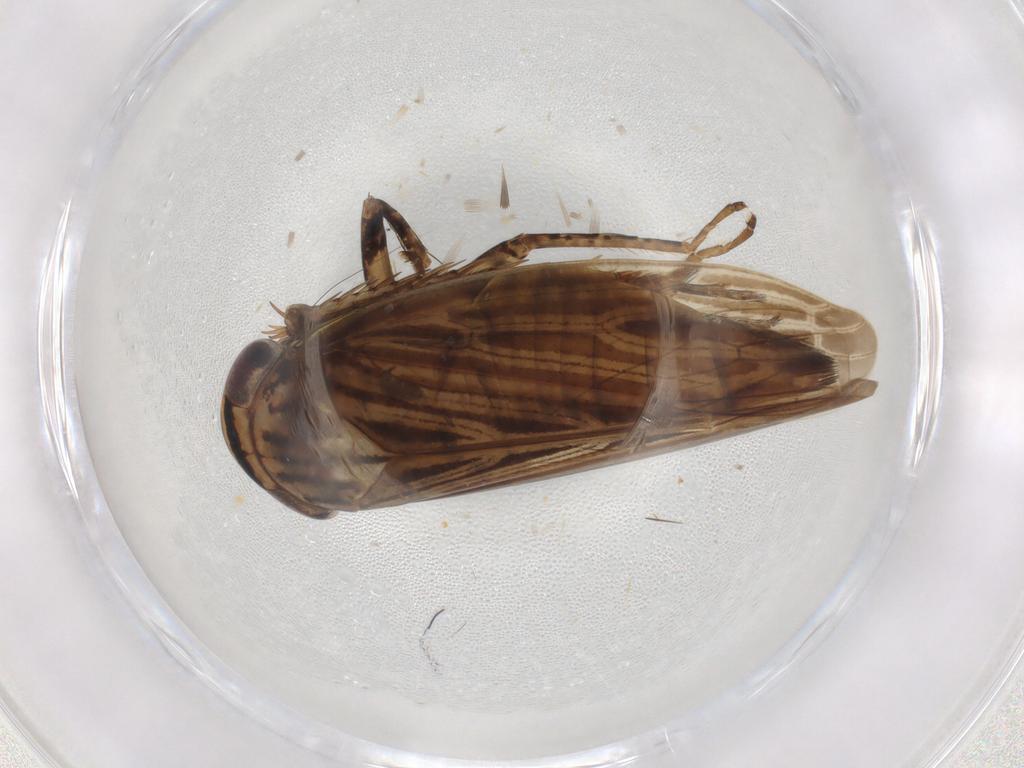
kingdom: Animalia
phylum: Arthropoda
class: Insecta
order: Hemiptera
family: Cicadellidae
